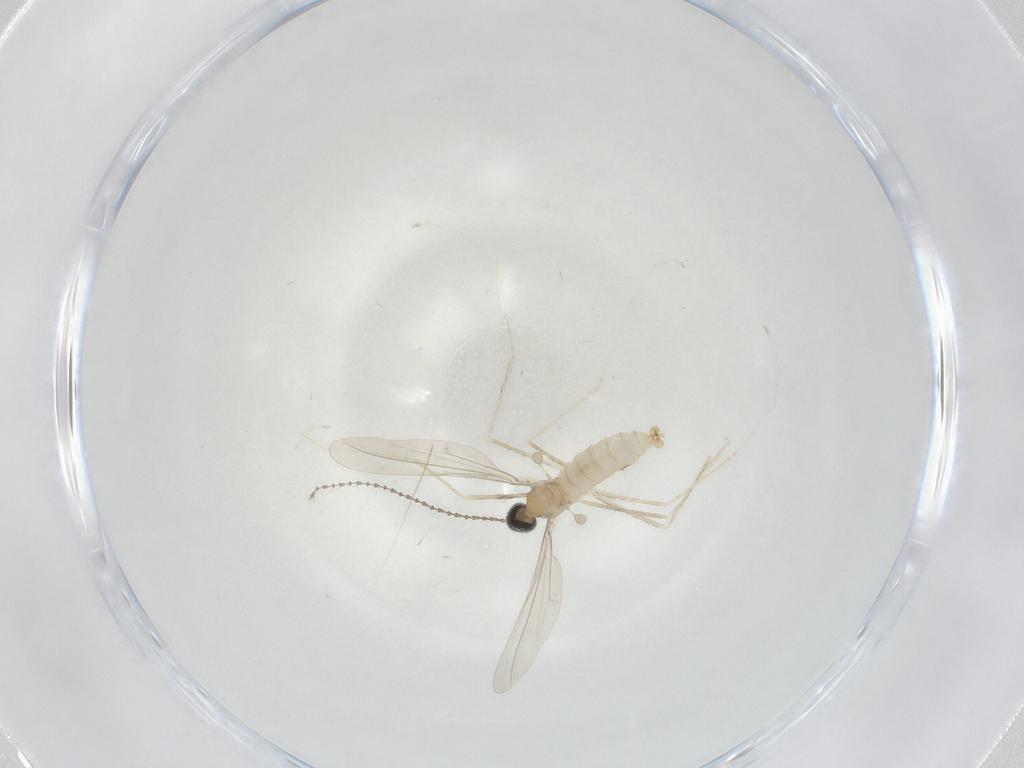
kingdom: Animalia
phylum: Arthropoda
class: Insecta
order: Diptera
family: Cecidomyiidae
